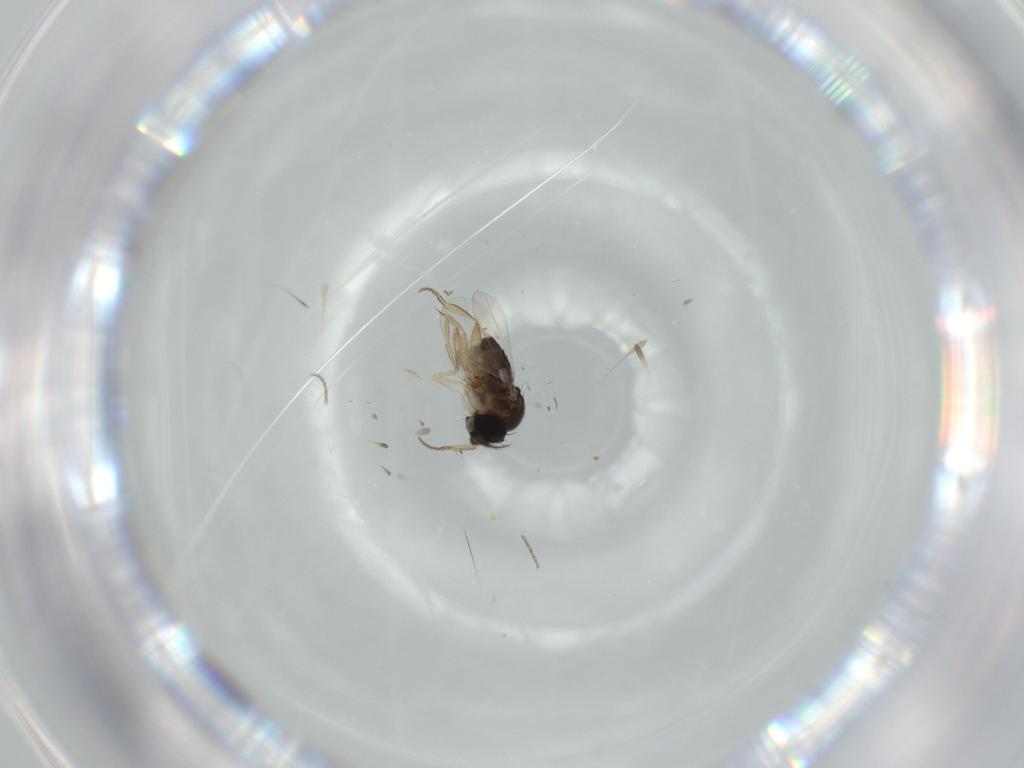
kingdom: Animalia
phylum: Arthropoda
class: Insecta
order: Diptera
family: Phoridae
